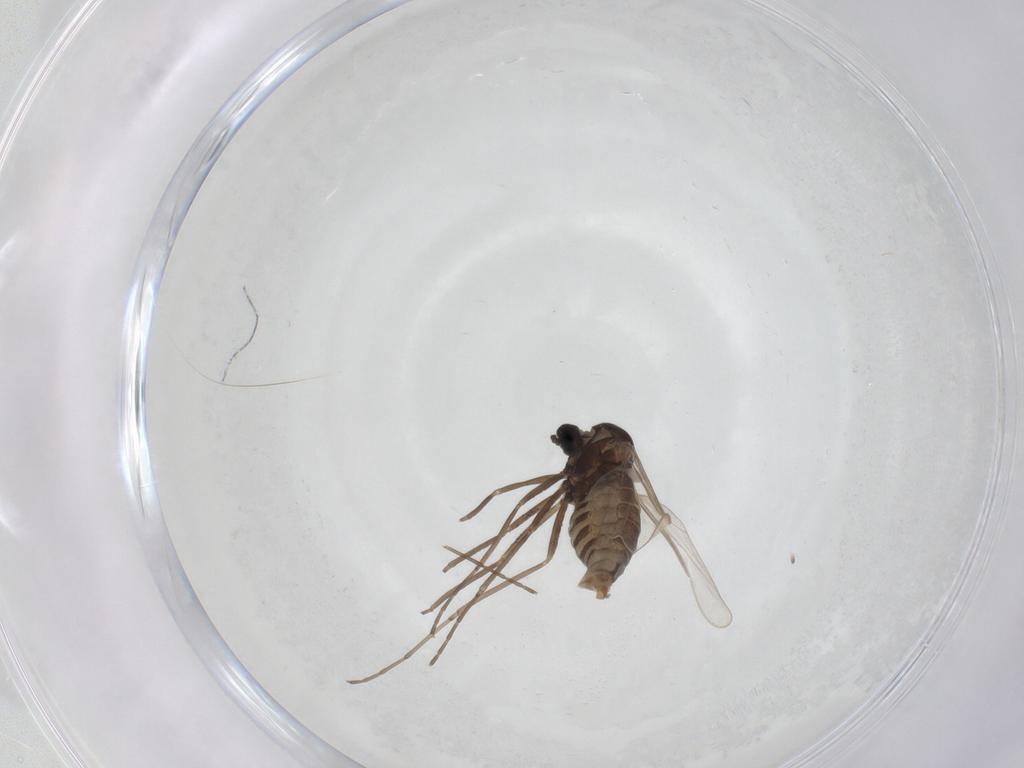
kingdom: Animalia
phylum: Arthropoda
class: Insecta
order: Diptera
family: Cecidomyiidae
